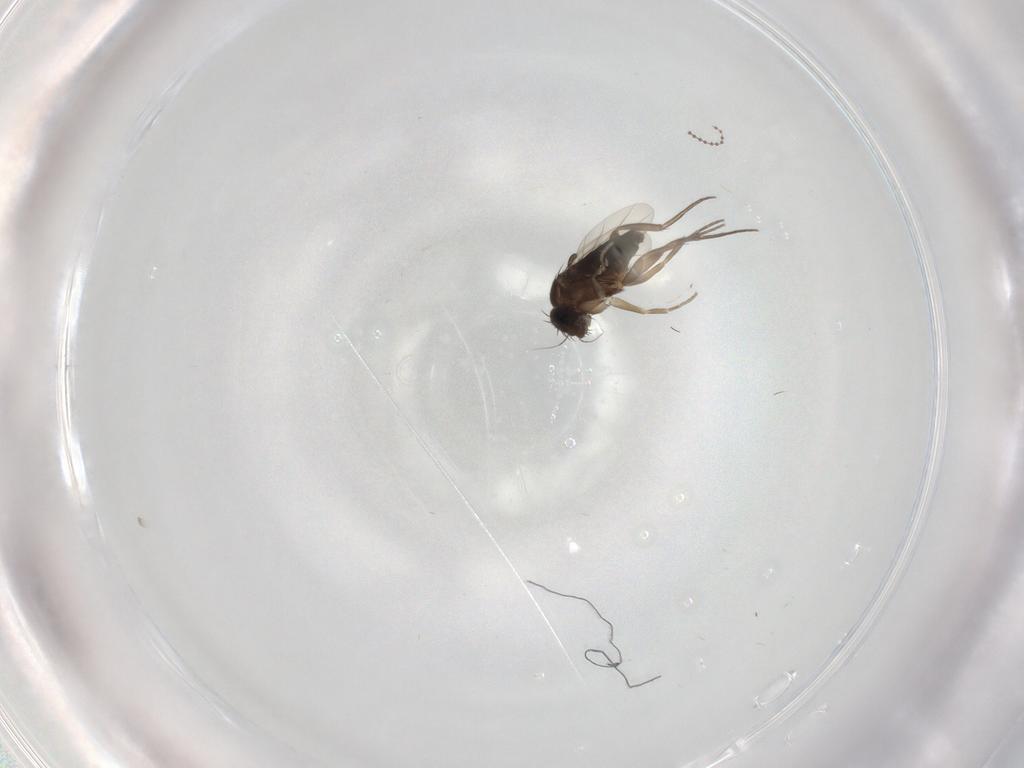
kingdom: Animalia
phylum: Arthropoda
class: Insecta
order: Diptera
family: Cecidomyiidae
